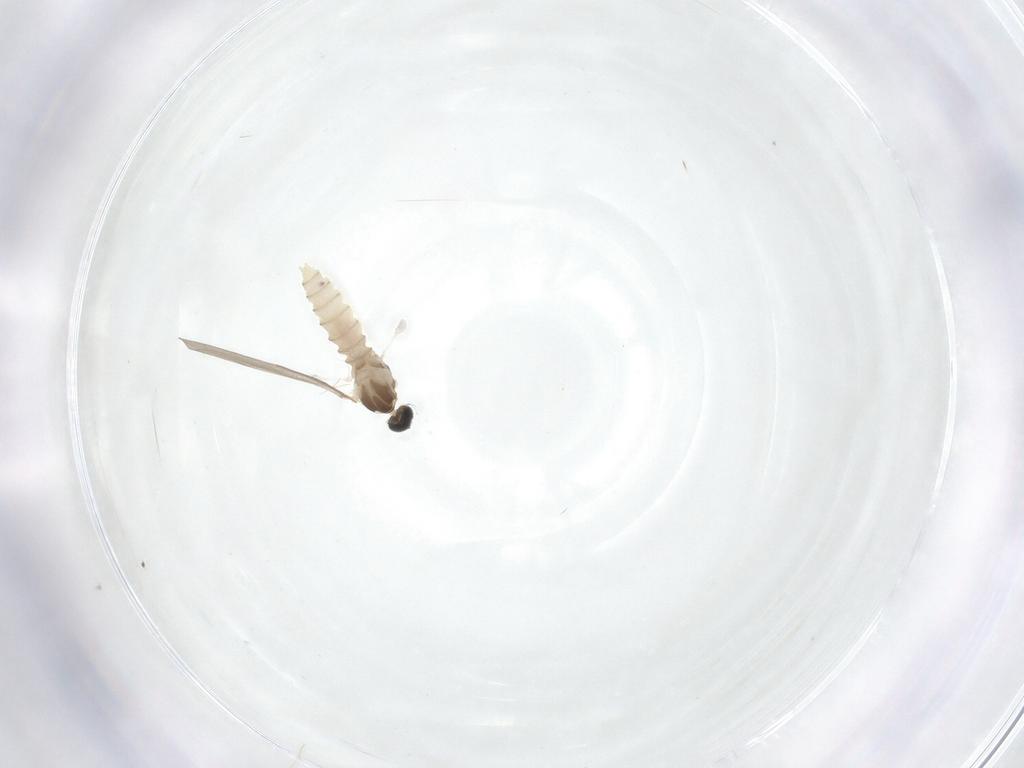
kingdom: Animalia
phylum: Arthropoda
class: Insecta
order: Diptera
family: Cecidomyiidae
